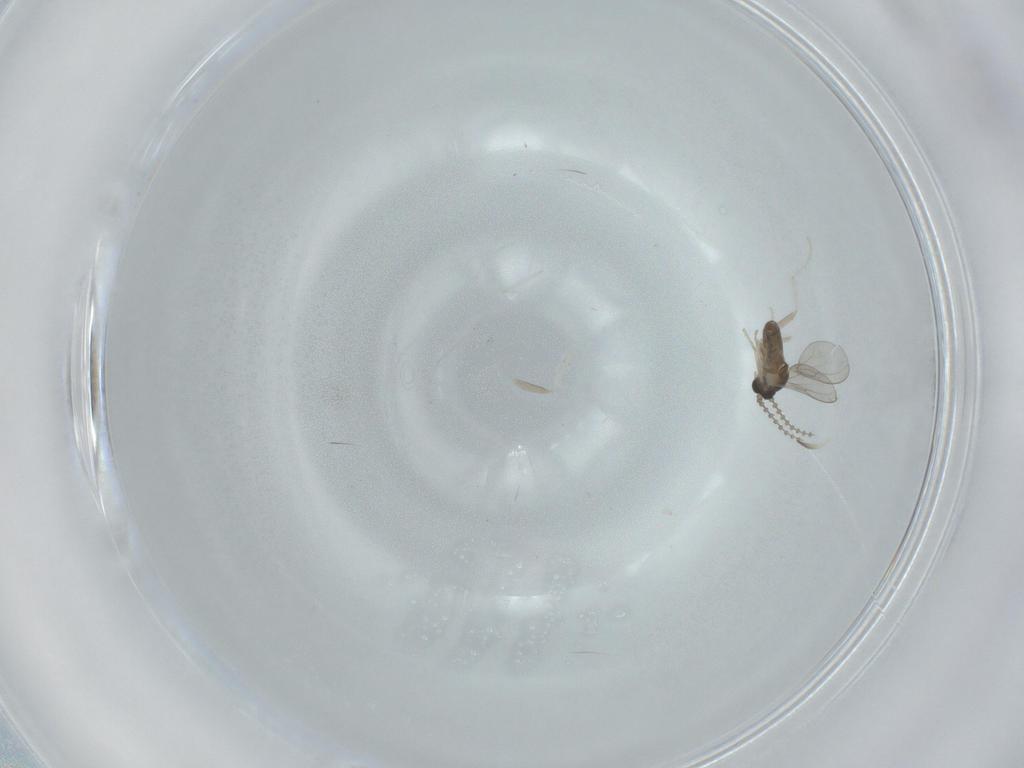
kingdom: Animalia
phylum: Arthropoda
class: Insecta
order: Diptera
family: Cecidomyiidae
